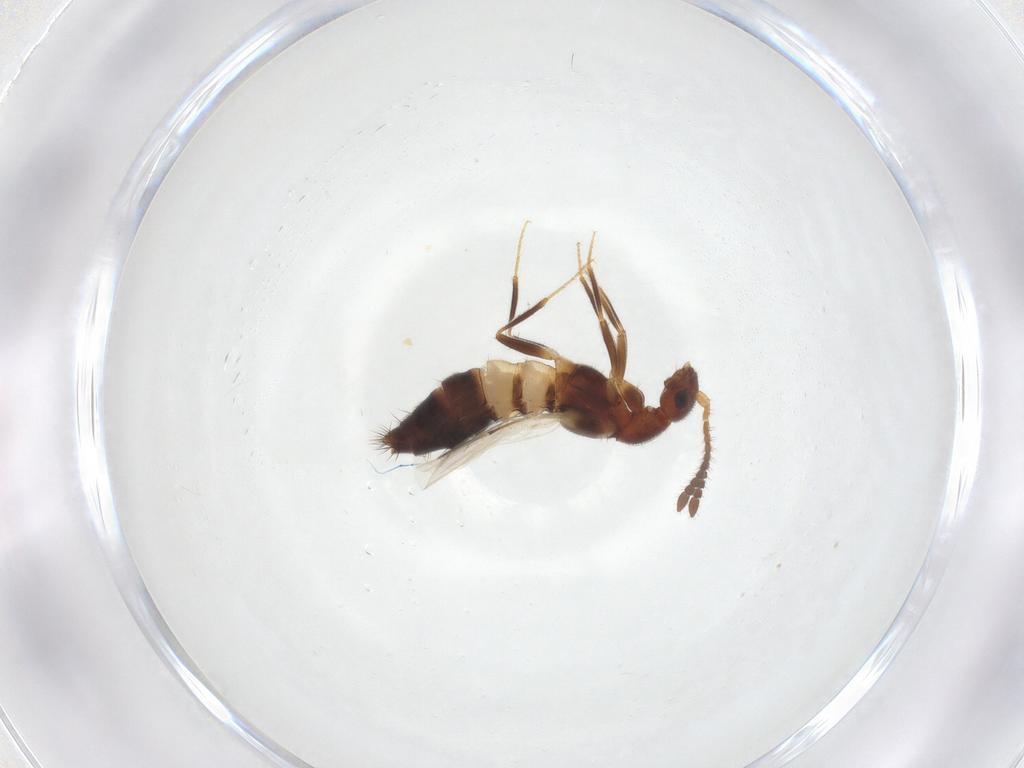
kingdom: Animalia
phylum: Arthropoda
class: Insecta
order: Coleoptera
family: Staphylinidae
